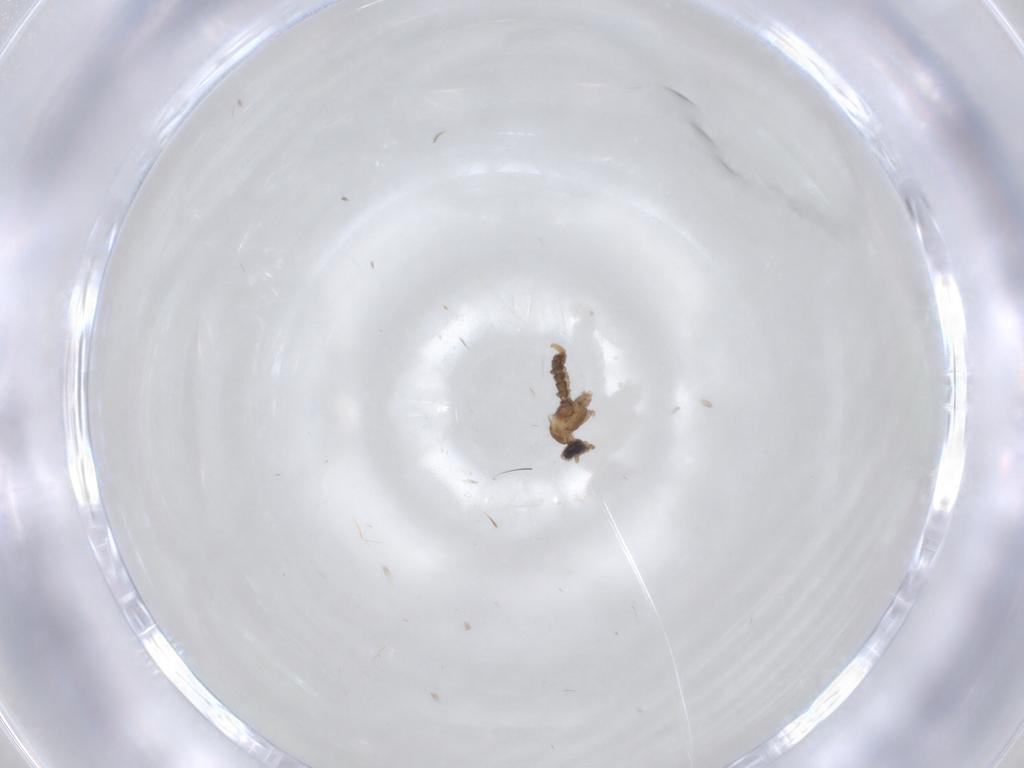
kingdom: Animalia
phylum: Arthropoda
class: Insecta
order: Diptera
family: Cecidomyiidae
